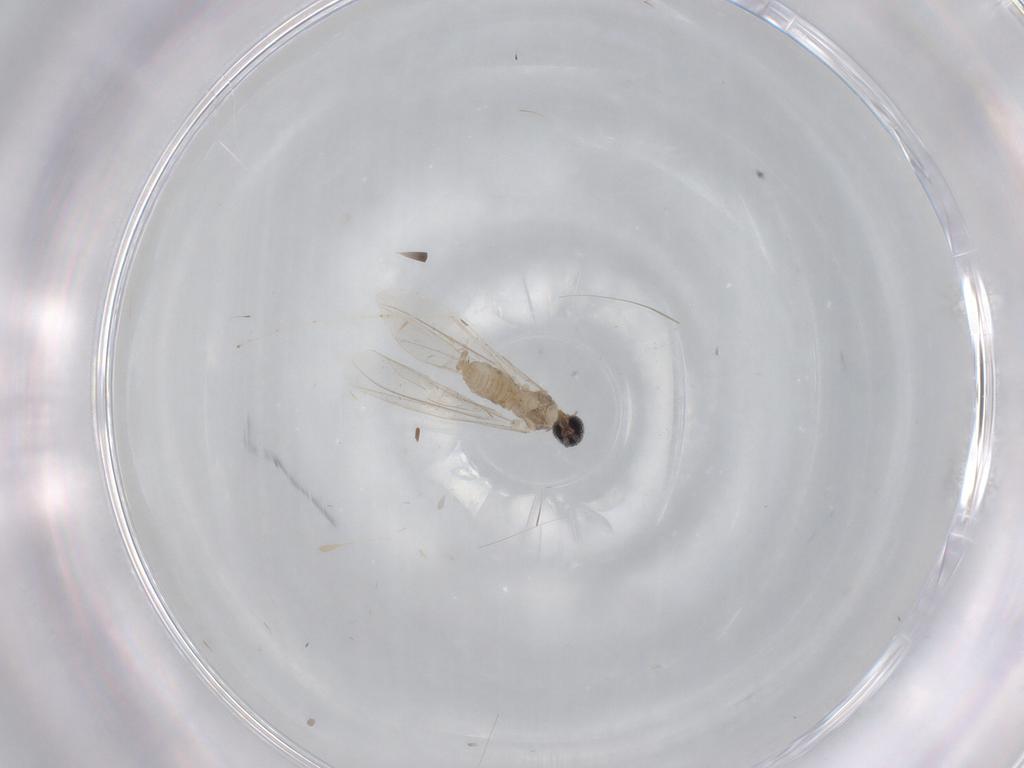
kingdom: Animalia
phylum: Arthropoda
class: Insecta
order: Diptera
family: Cecidomyiidae
